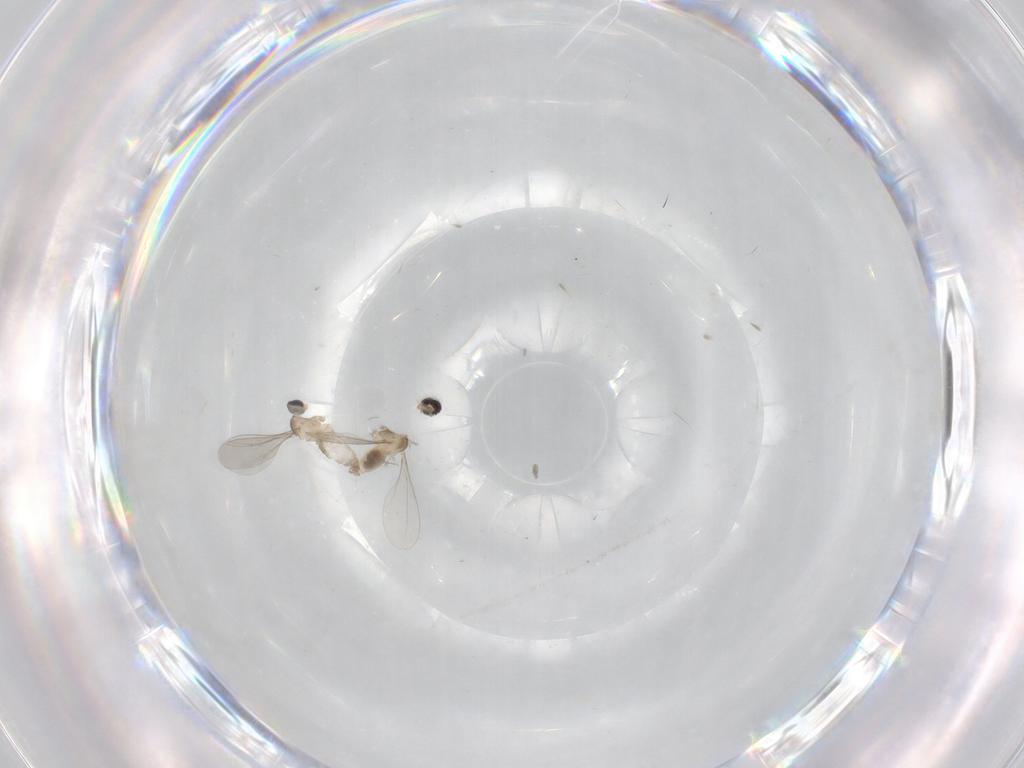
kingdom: Animalia
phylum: Arthropoda
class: Insecta
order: Diptera
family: Cecidomyiidae
